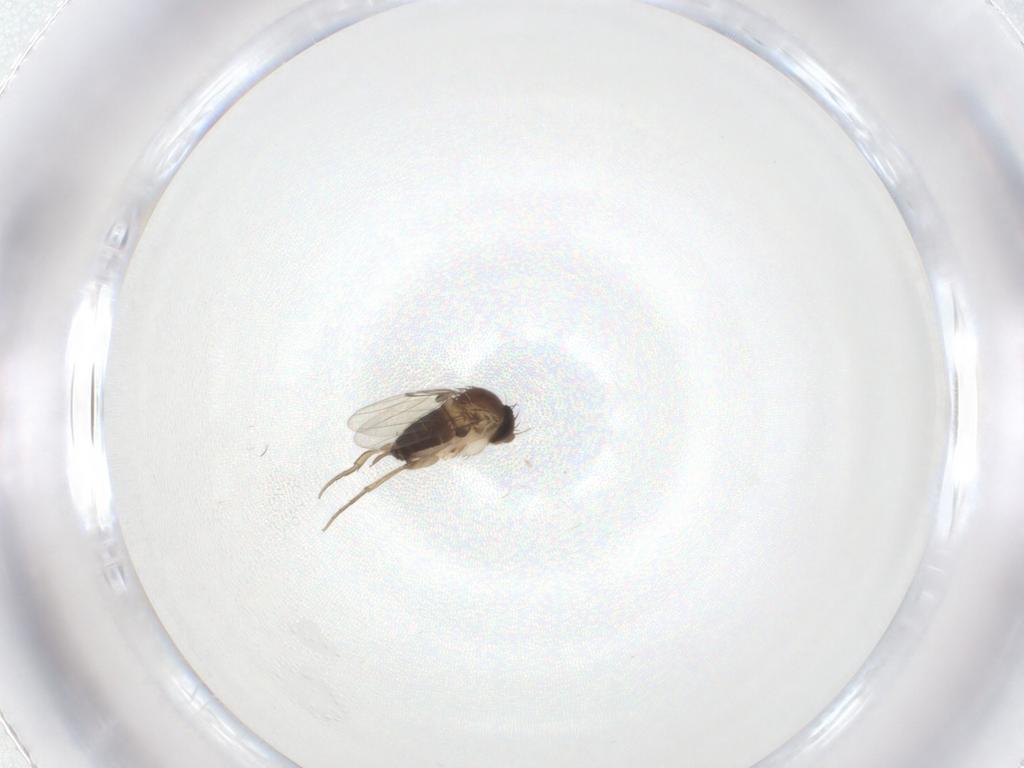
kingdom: Animalia
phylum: Arthropoda
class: Insecta
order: Diptera
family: Phoridae
